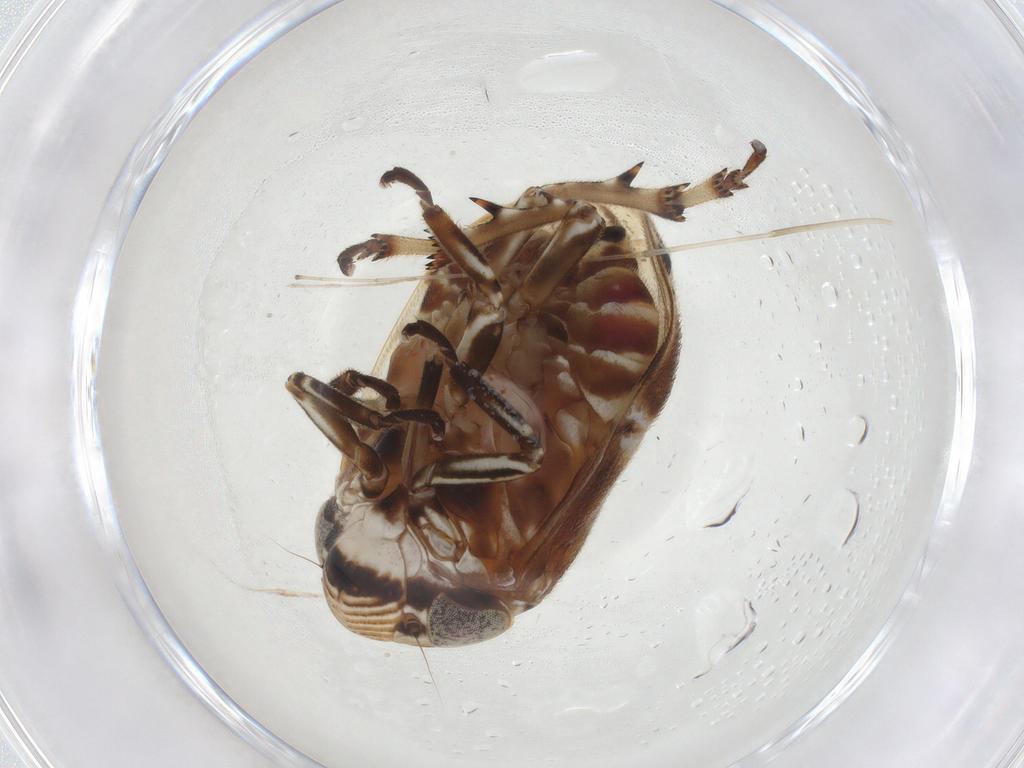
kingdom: Animalia
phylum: Arthropoda
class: Insecta
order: Hemiptera
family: Clastopteridae
